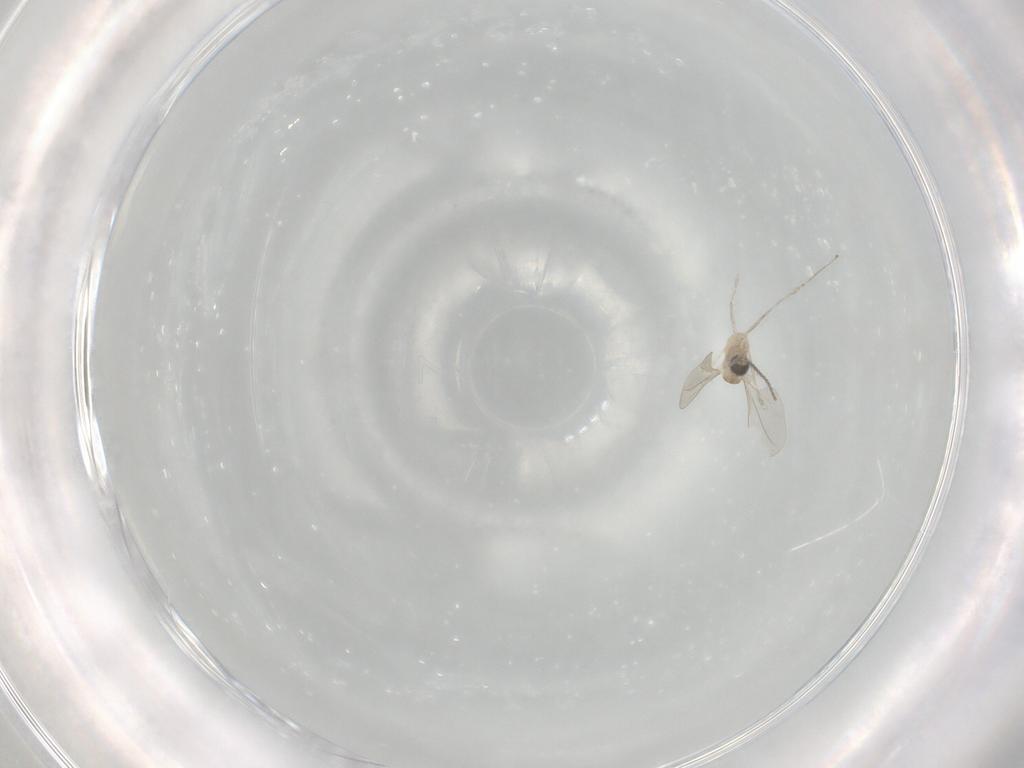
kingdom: Animalia
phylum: Arthropoda
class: Insecta
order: Diptera
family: Cecidomyiidae
